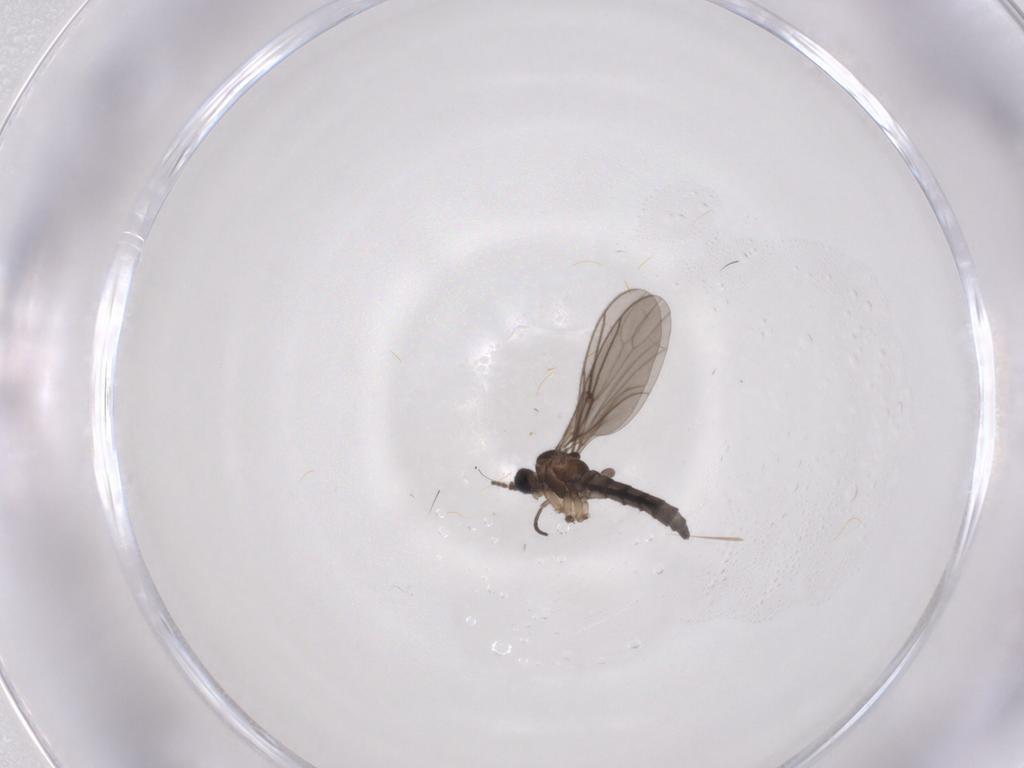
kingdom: Animalia
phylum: Arthropoda
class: Insecta
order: Diptera
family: Sciaridae
